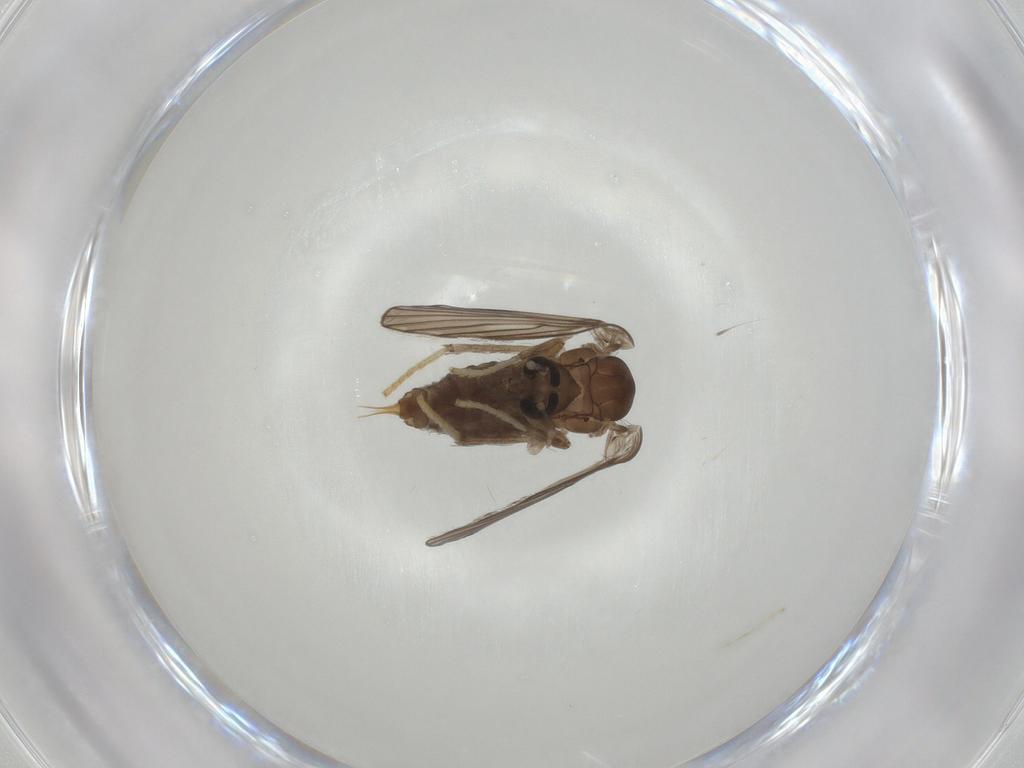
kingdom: Animalia
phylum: Arthropoda
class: Insecta
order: Diptera
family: Psychodidae
